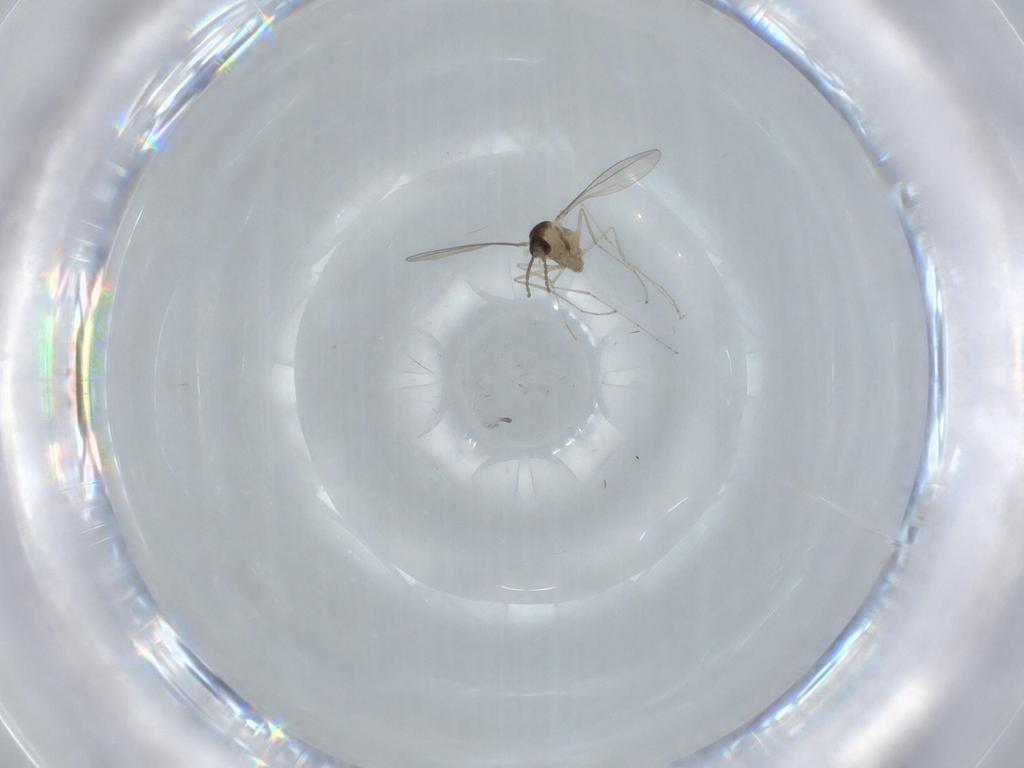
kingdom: Animalia
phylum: Arthropoda
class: Insecta
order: Diptera
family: Cecidomyiidae
